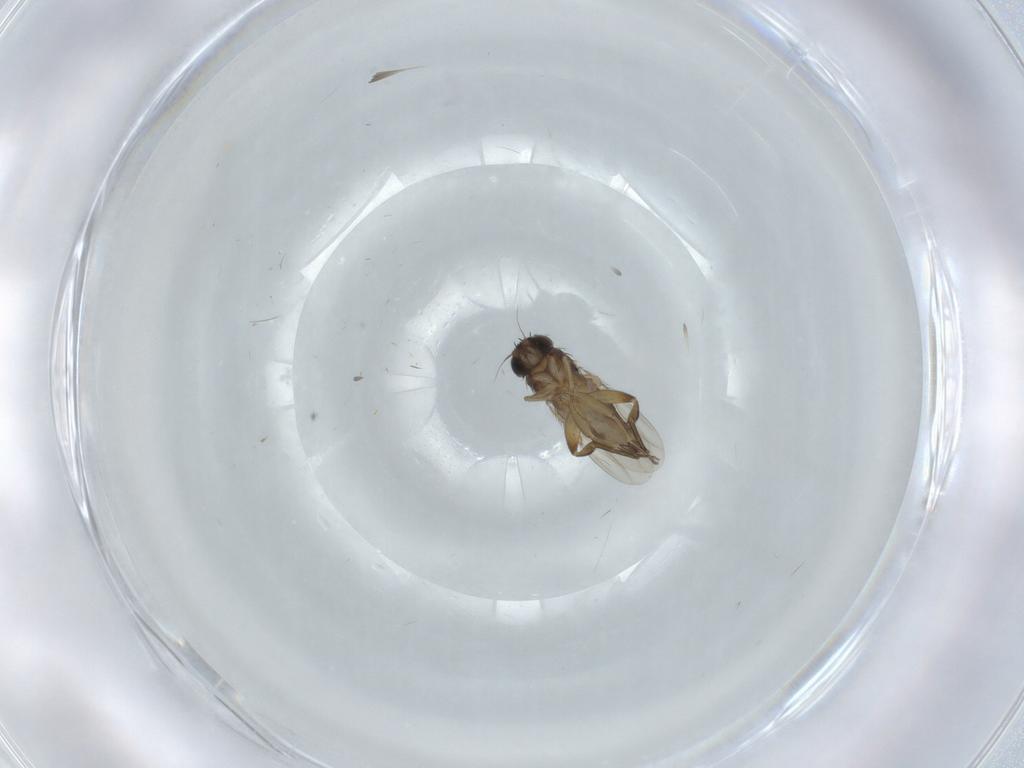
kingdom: Animalia
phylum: Arthropoda
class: Insecta
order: Diptera
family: Phoridae
